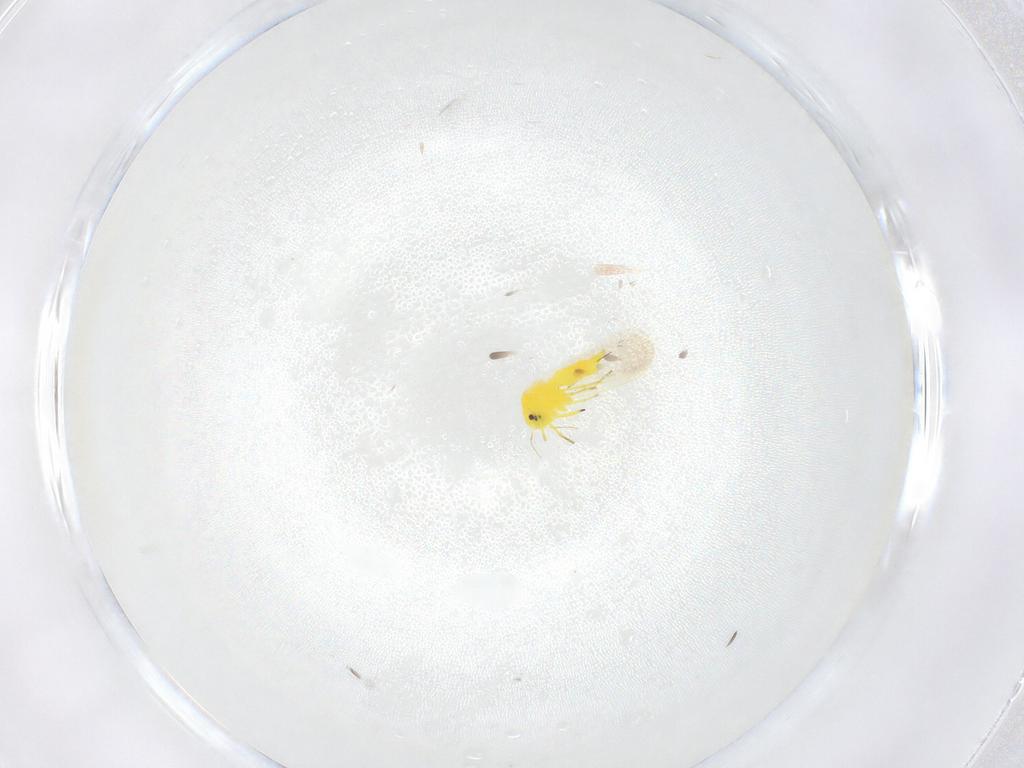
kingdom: Animalia
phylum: Arthropoda
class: Insecta
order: Hemiptera
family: Aleyrodidae
